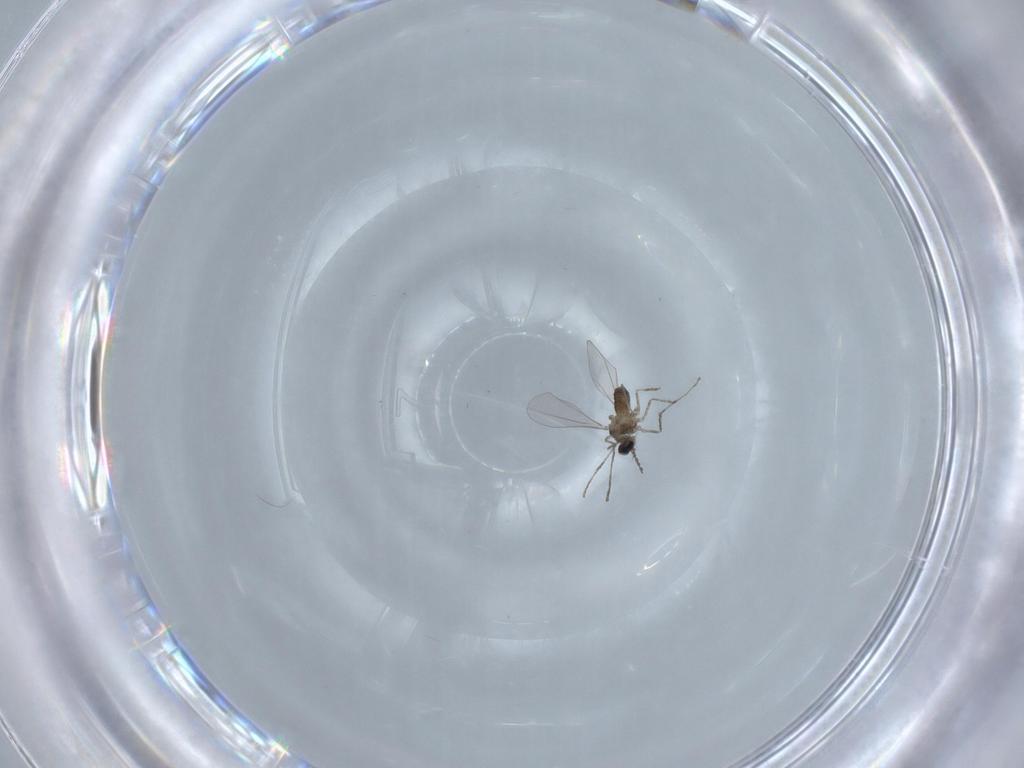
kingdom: Animalia
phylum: Arthropoda
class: Insecta
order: Diptera
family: Cecidomyiidae
